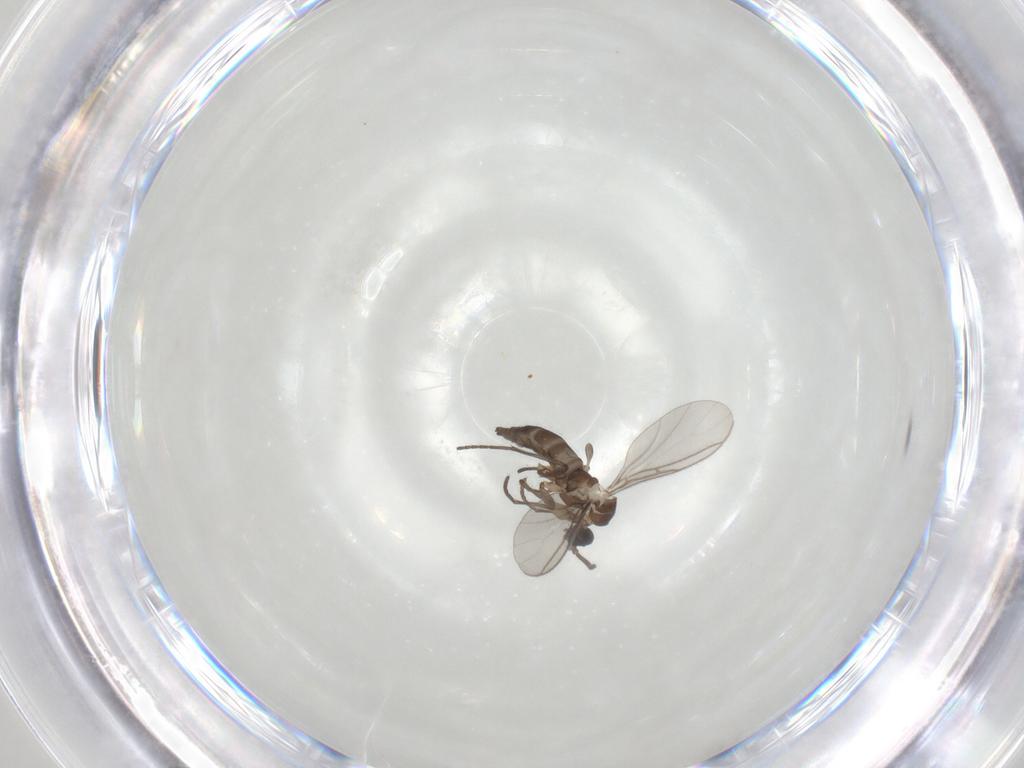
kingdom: Animalia
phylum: Arthropoda
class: Insecta
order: Diptera
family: Sciaridae
